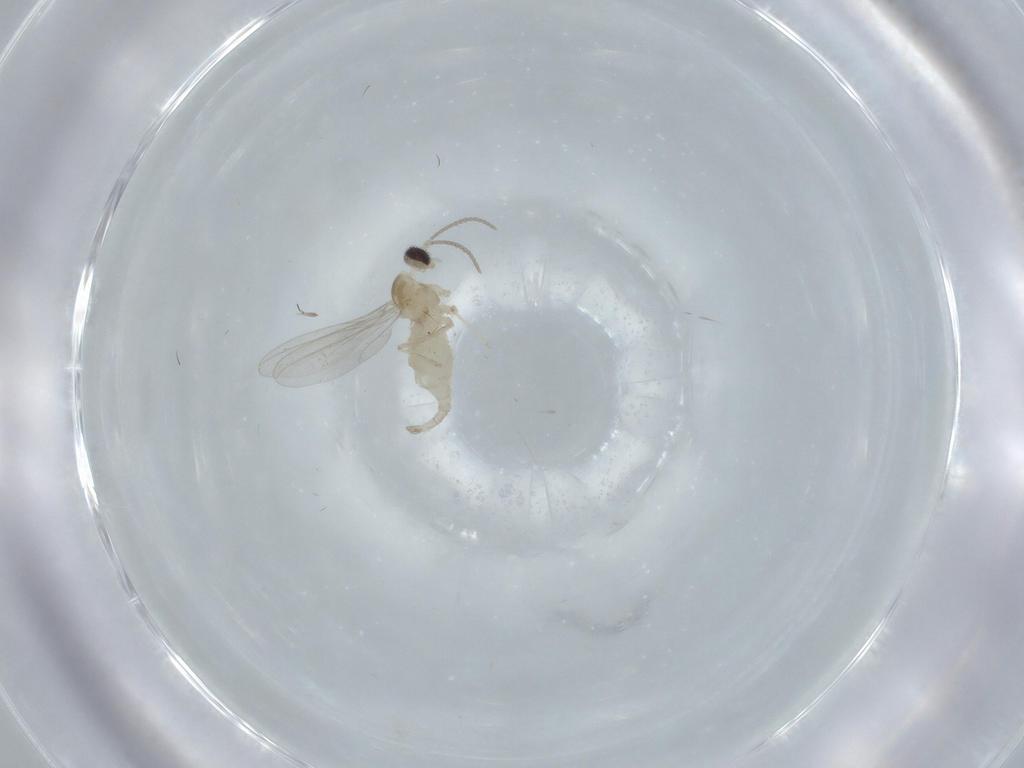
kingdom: Animalia
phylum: Arthropoda
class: Insecta
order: Diptera
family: Cecidomyiidae
